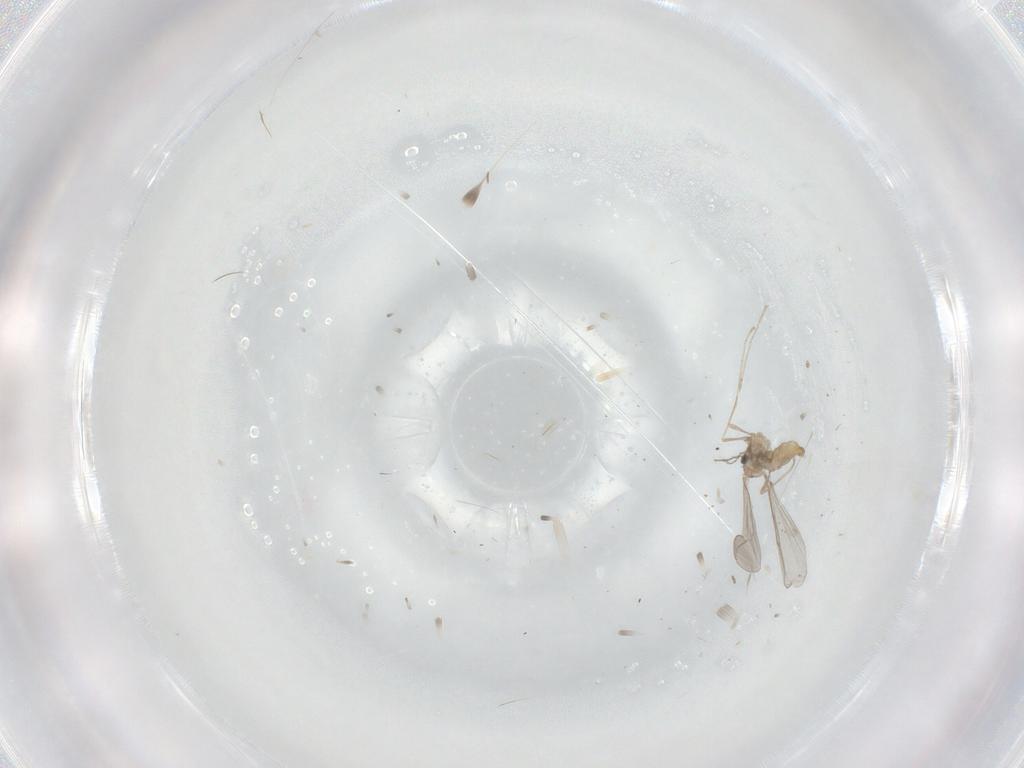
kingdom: Animalia
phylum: Arthropoda
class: Insecta
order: Diptera
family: Cecidomyiidae
